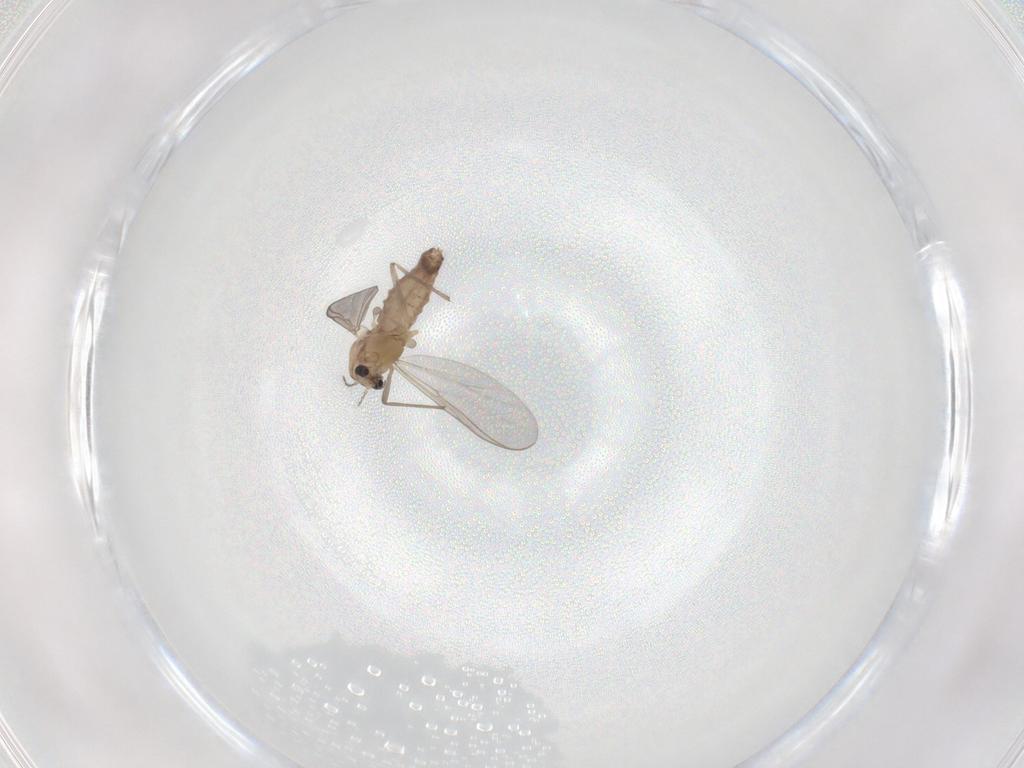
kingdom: Animalia
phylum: Arthropoda
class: Insecta
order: Diptera
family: Chironomidae
